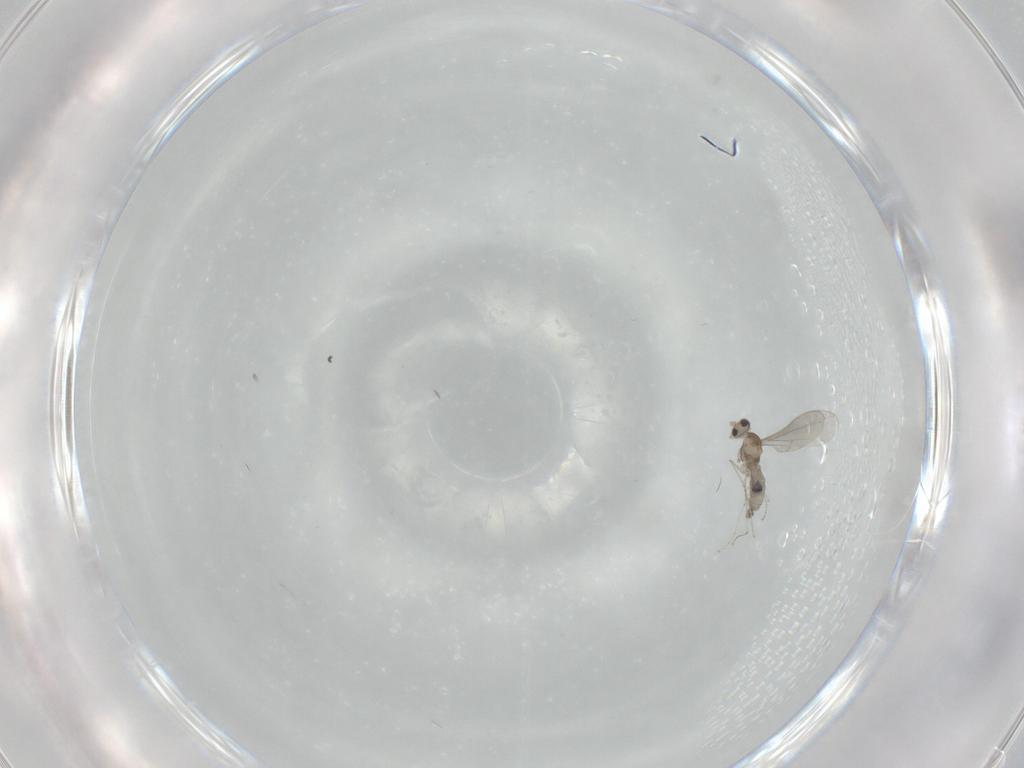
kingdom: Animalia
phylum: Arthropoda
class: Insecta
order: Diptera
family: Cecidomyiidae
